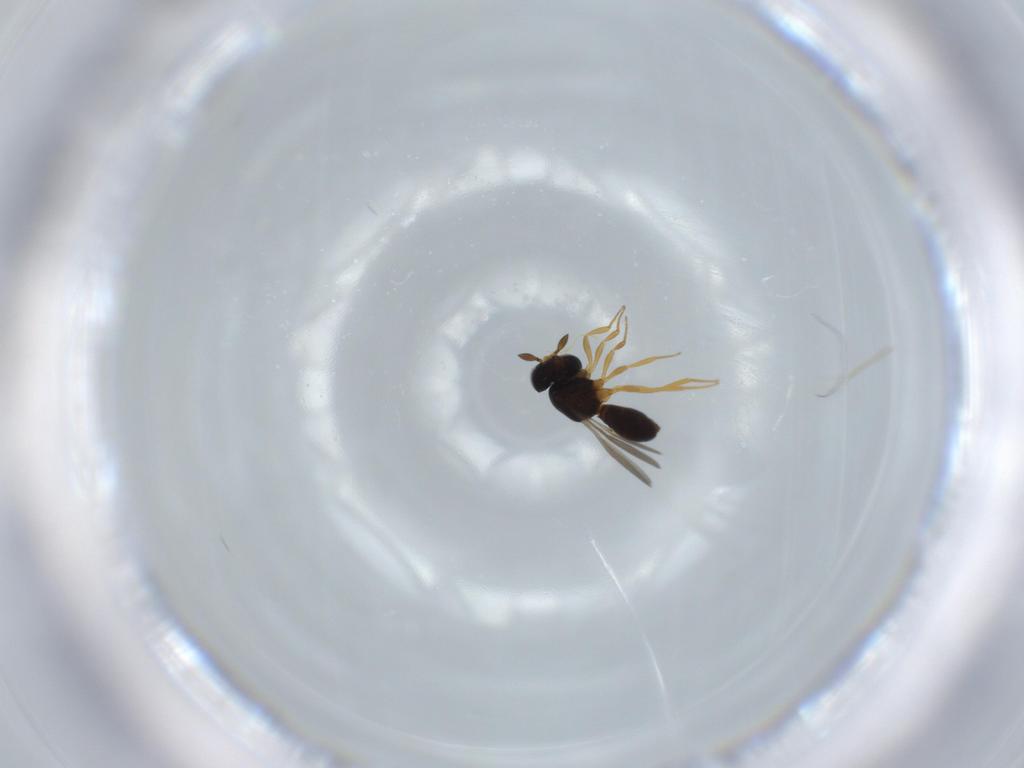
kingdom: Animalia
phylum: Arthropoda
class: Insecta
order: Hymenoptera
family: Scelionidae
